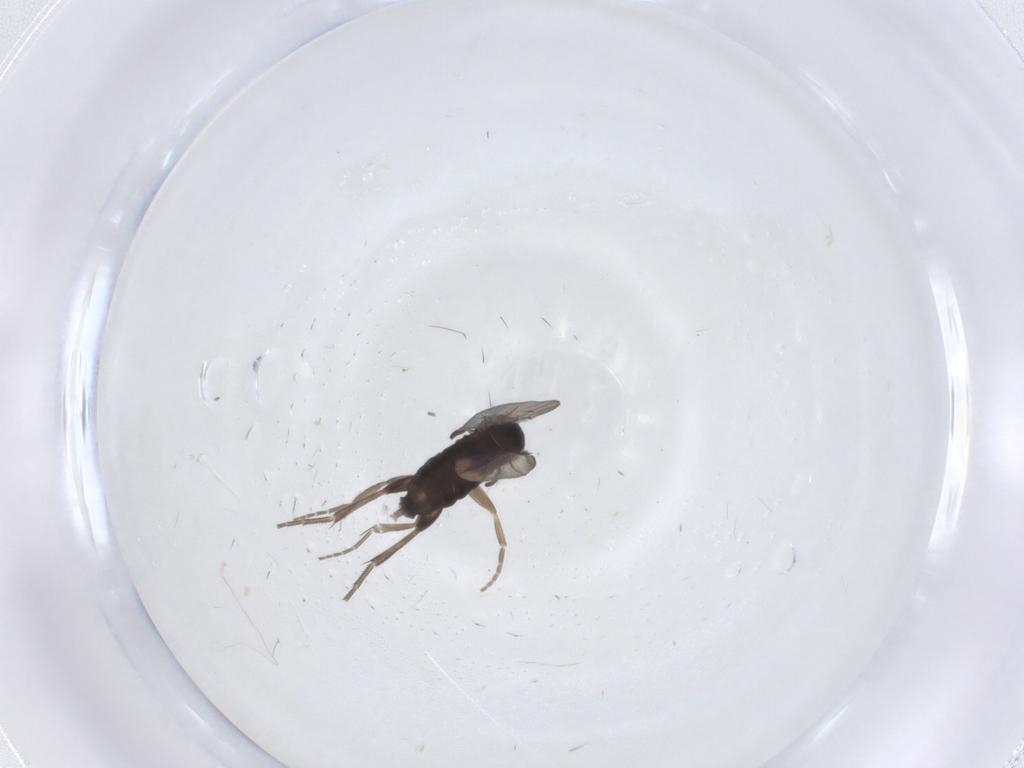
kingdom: Animalia
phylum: Arthropoda
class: Insecta
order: Diptera
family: Phoridae
